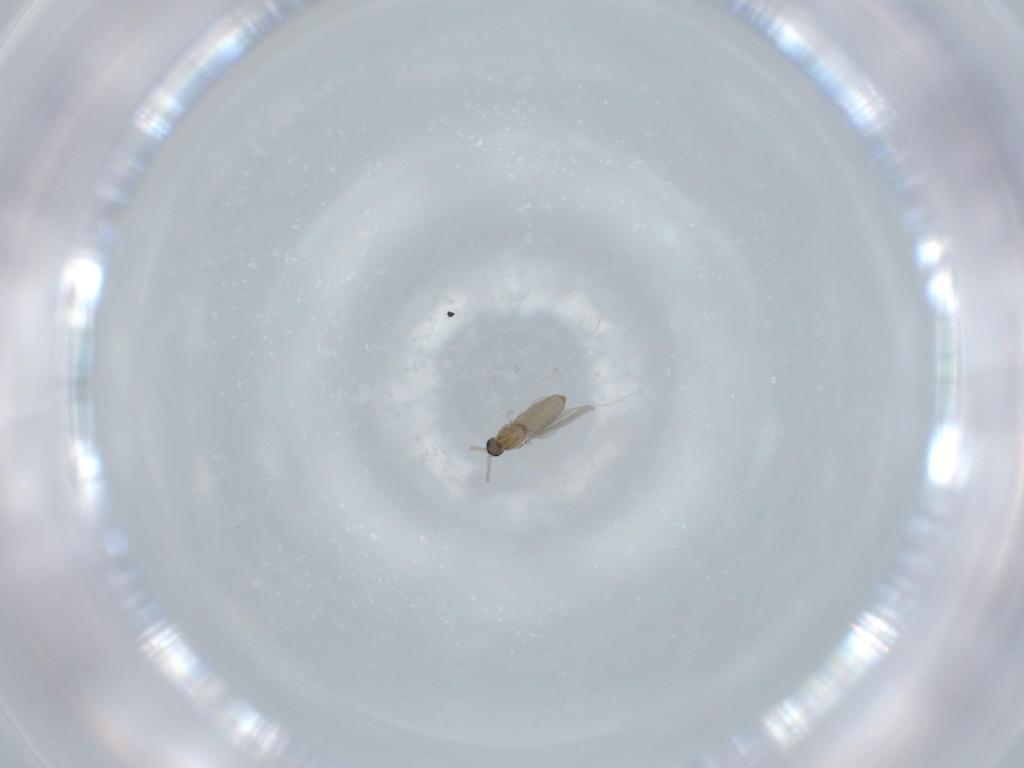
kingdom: Animalia
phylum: Arthropoda
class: Insecta
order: Diptera
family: Cecidomyiidae
